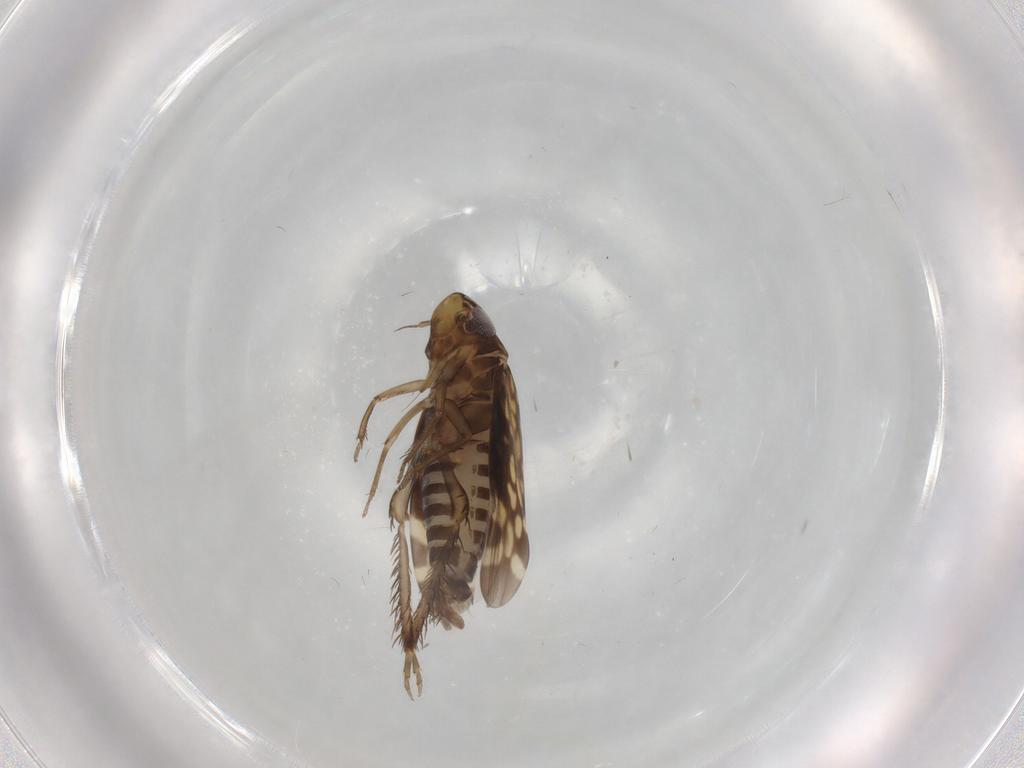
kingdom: Animalia
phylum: Arthropoda
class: Insecta
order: Hemiptera
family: Cicadellidae
